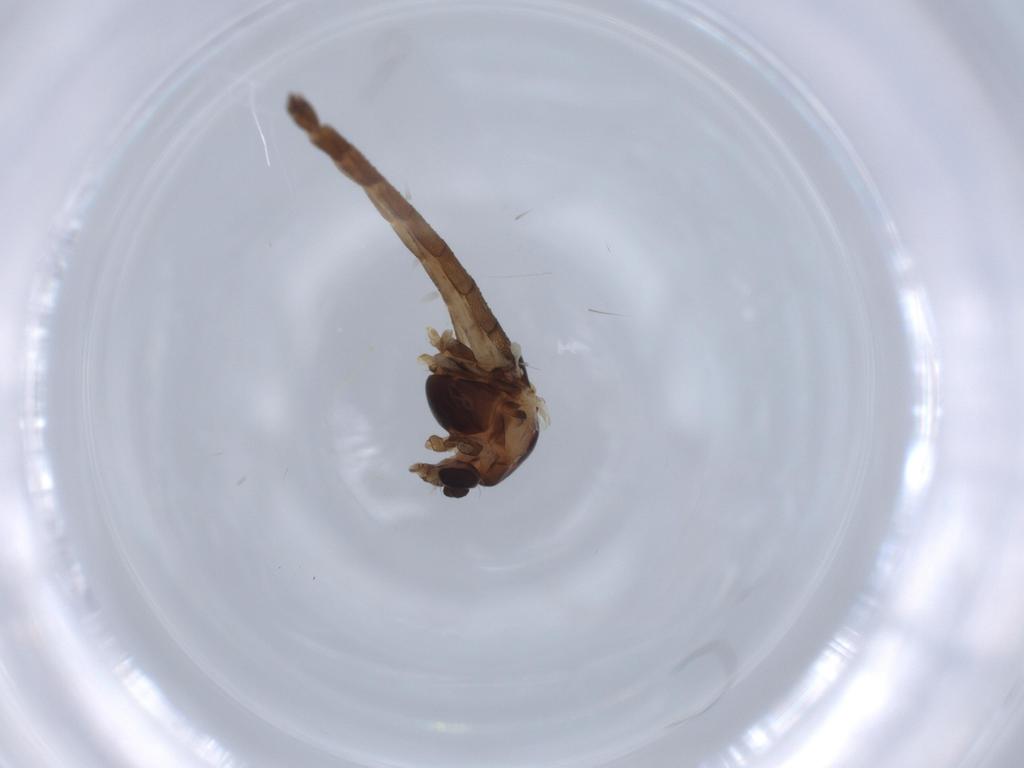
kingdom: Animalia
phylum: Arthropoda
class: Insecta
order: Diptera
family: Chironomidae
